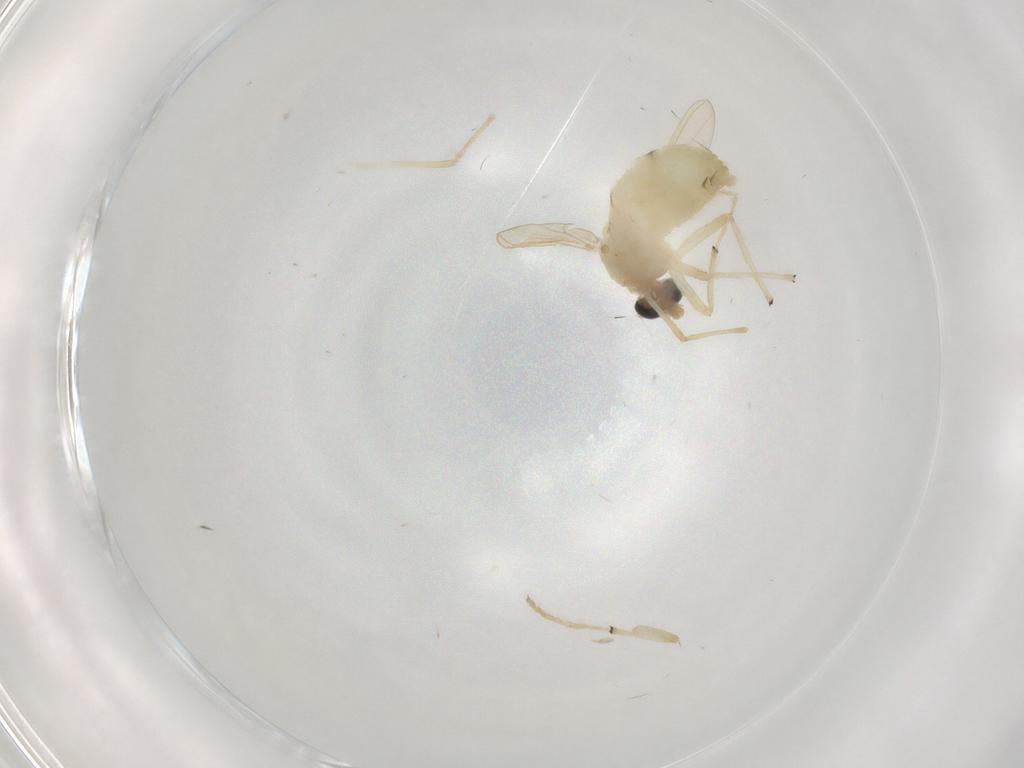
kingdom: Animalia
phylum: Arthropoda
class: Insecta
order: Diptera
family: Chironomidae
